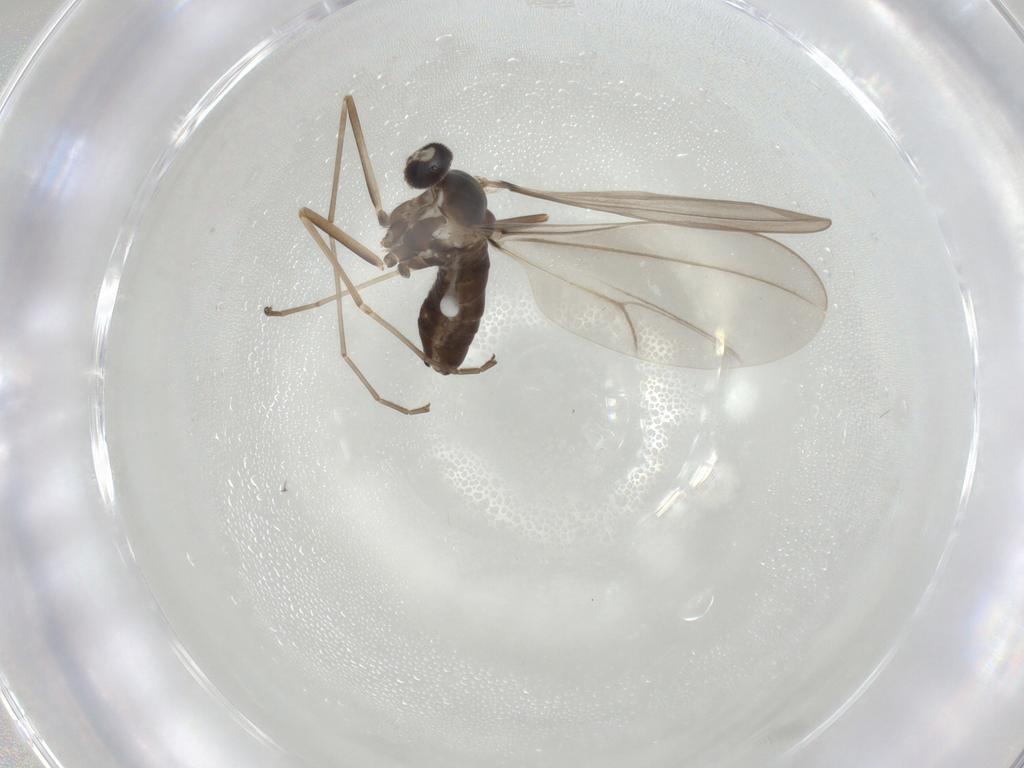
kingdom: Animalia
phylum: Arthropoda
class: Insecta
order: Diptera
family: Cecidomyiidae
